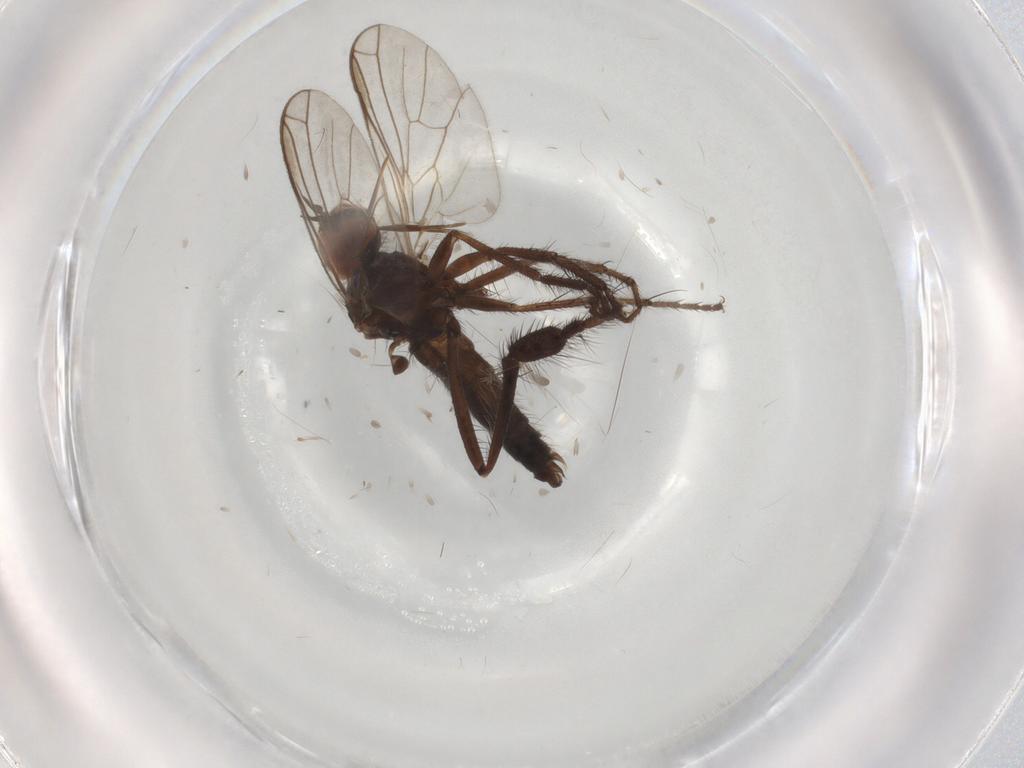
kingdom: Animalia
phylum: Arthropoda
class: Insecta
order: Diptera
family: Empididae
